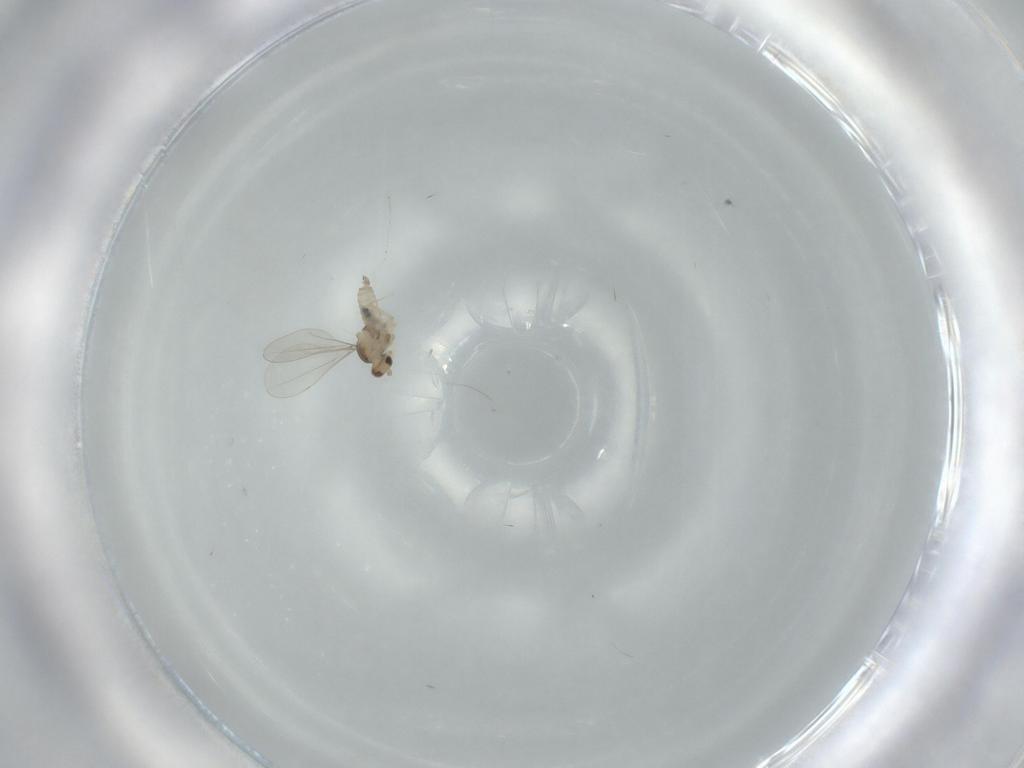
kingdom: Animalia
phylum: Arthropoda
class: Insecta
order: Diptera
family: Cecidomyiidae
